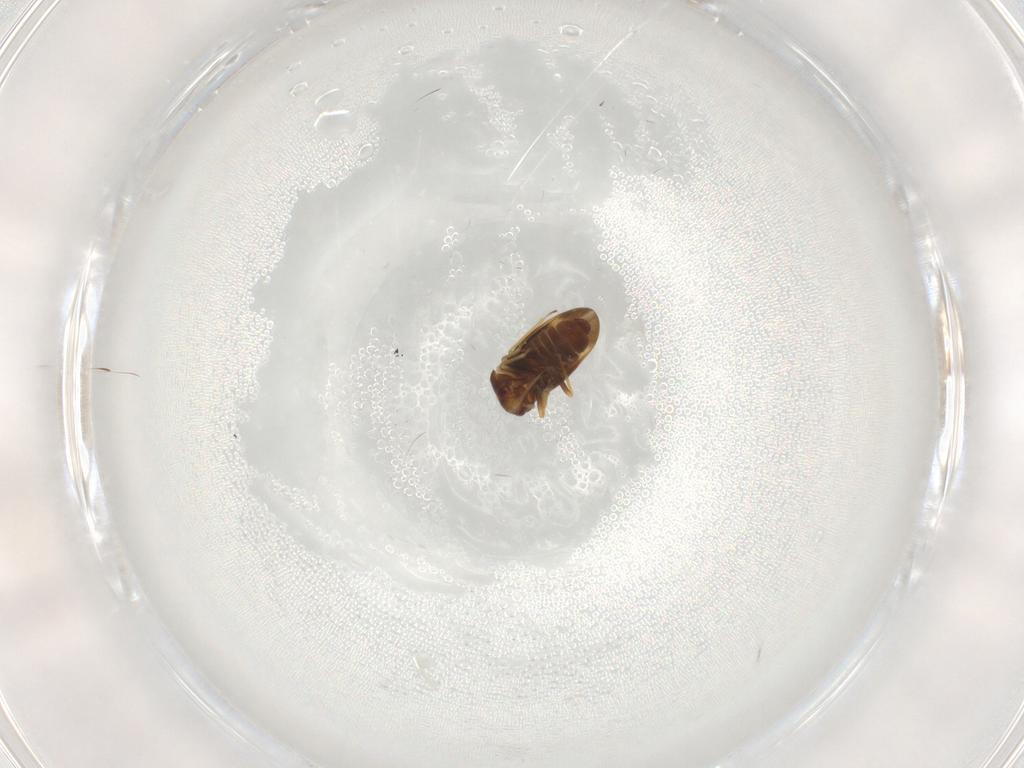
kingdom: Animalia
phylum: Arthropoda
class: Insecta
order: Hemiptera
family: Schizopteridae
